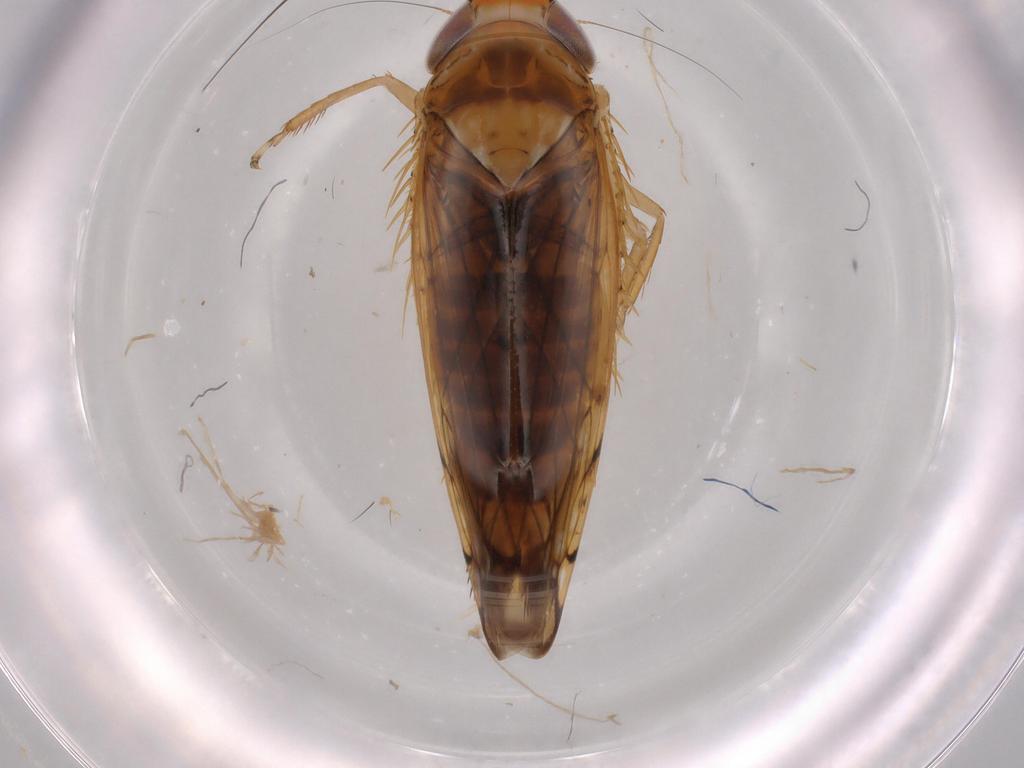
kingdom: Animalia
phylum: Arthropoda
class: Insecta
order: Hemiptera
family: Cicadellidae
